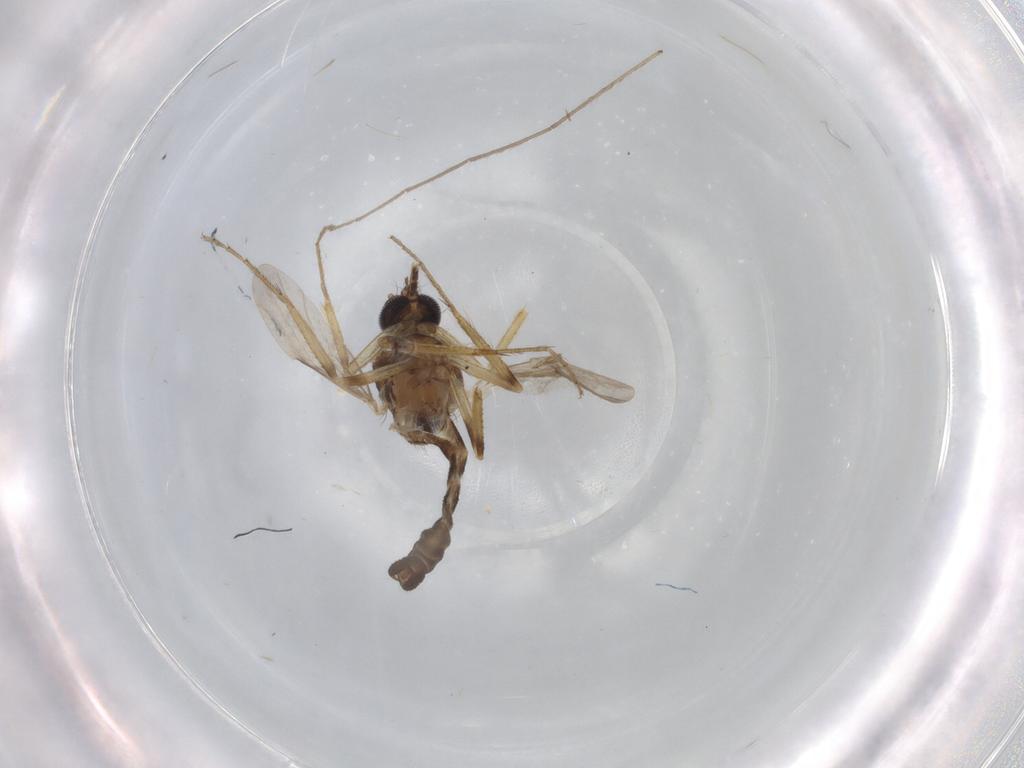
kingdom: Animalia
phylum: Arthropoda
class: Insecta
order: Diptera
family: Ceratopogonidae
